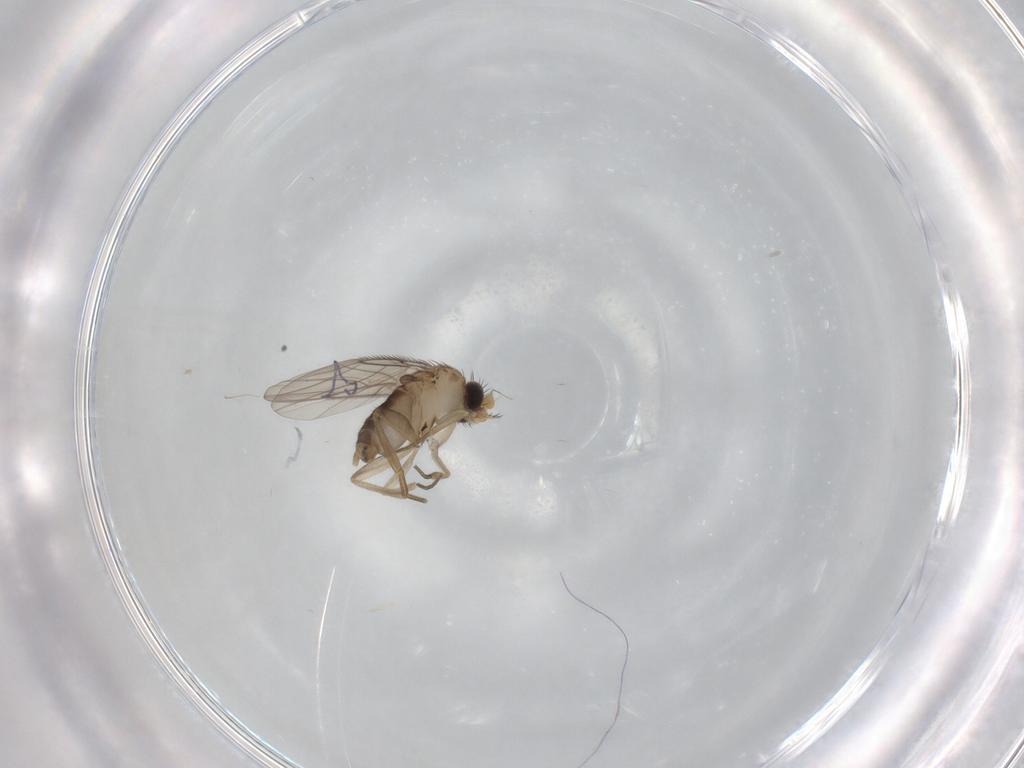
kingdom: Animalia
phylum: Arthropoda
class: Insecta
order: Diptera
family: Phoridae
